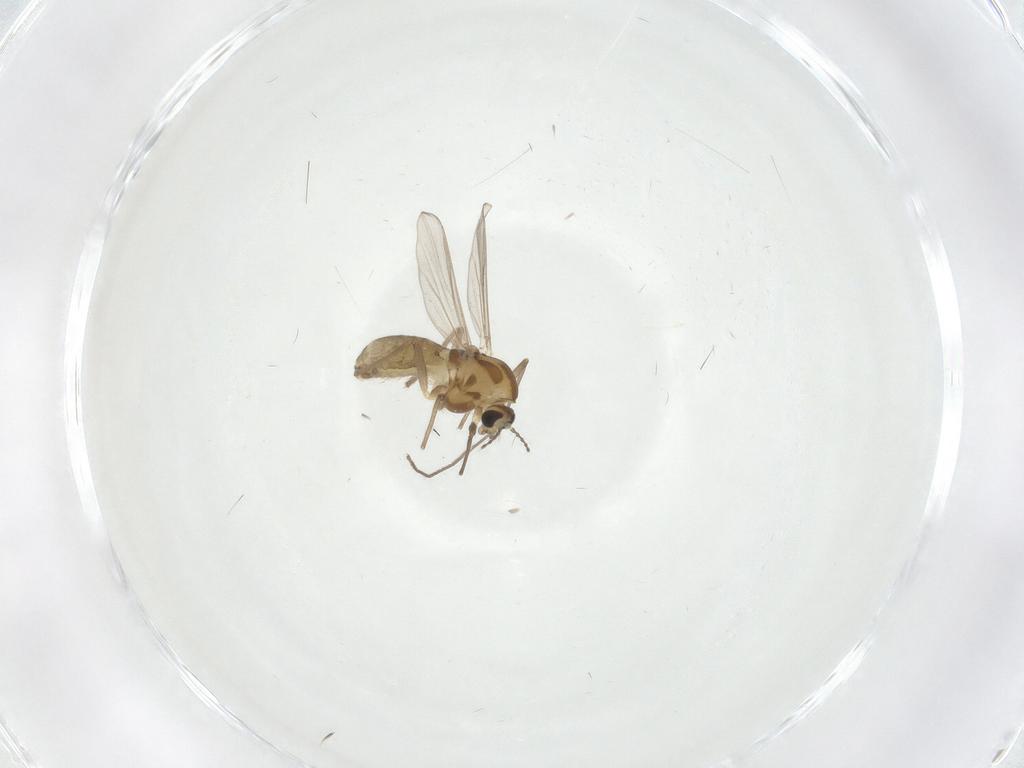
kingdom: Animalia
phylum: Arthropoda
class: Insecta
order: Diptera
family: Chironomidae
